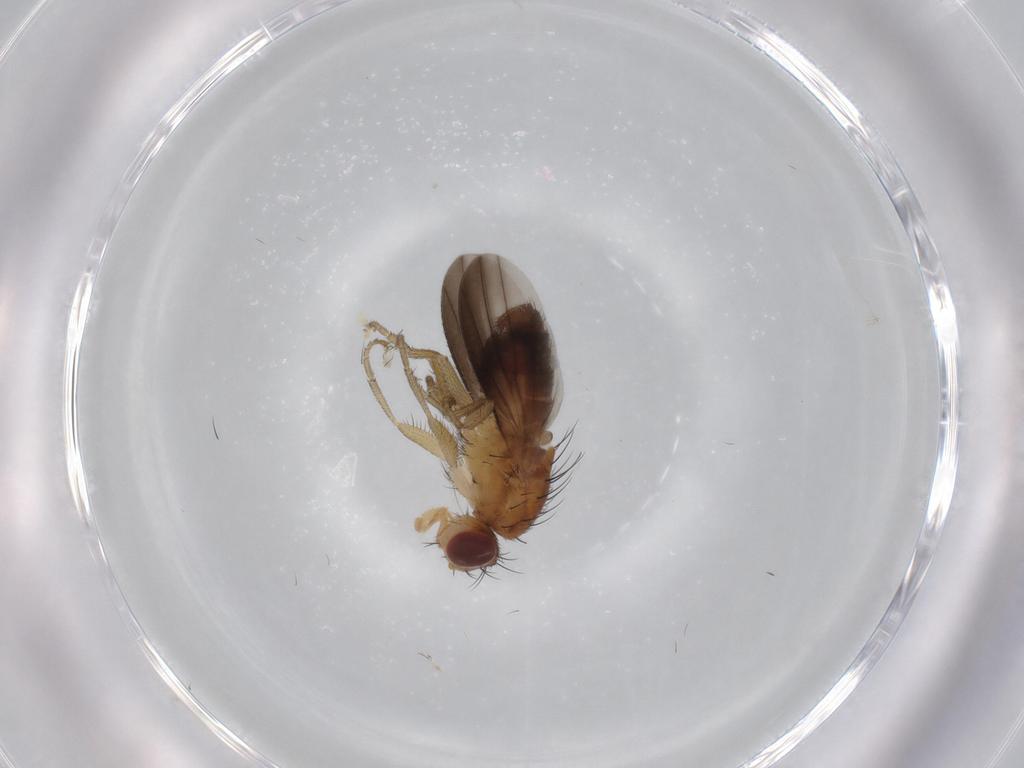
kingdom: Animalia
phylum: Arthropoda
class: Insecta
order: Diptera
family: Heleomyzidae
